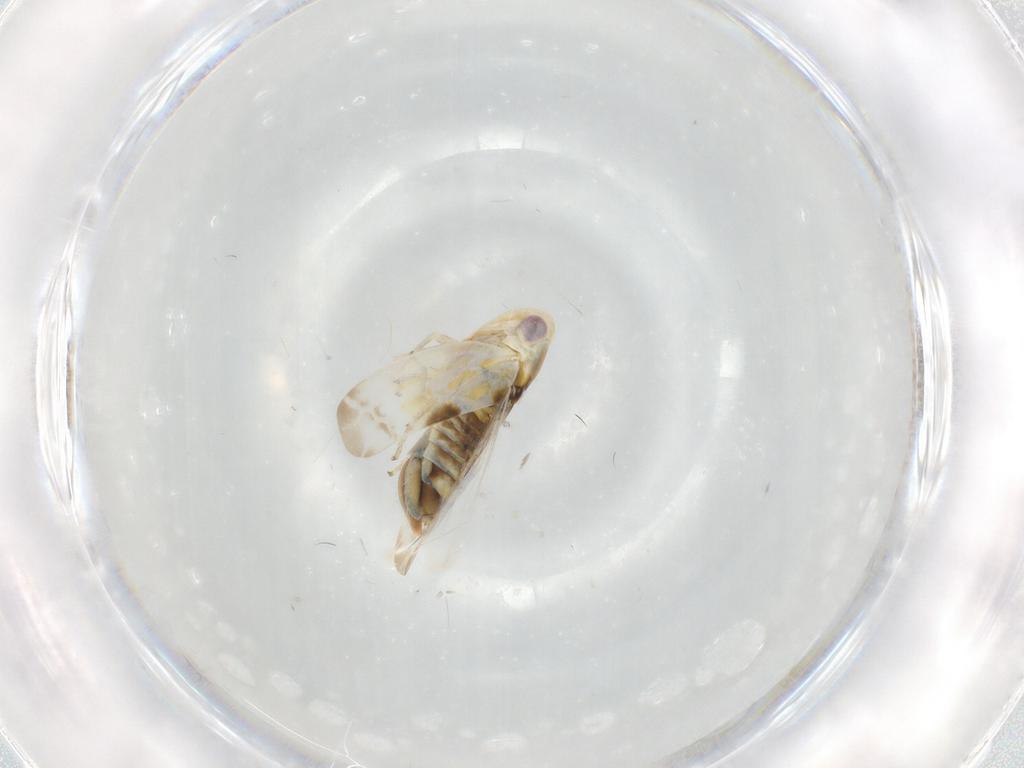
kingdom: Animalia
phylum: Arthropoda
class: Insecta
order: Hemiptera
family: Cicadellidae
